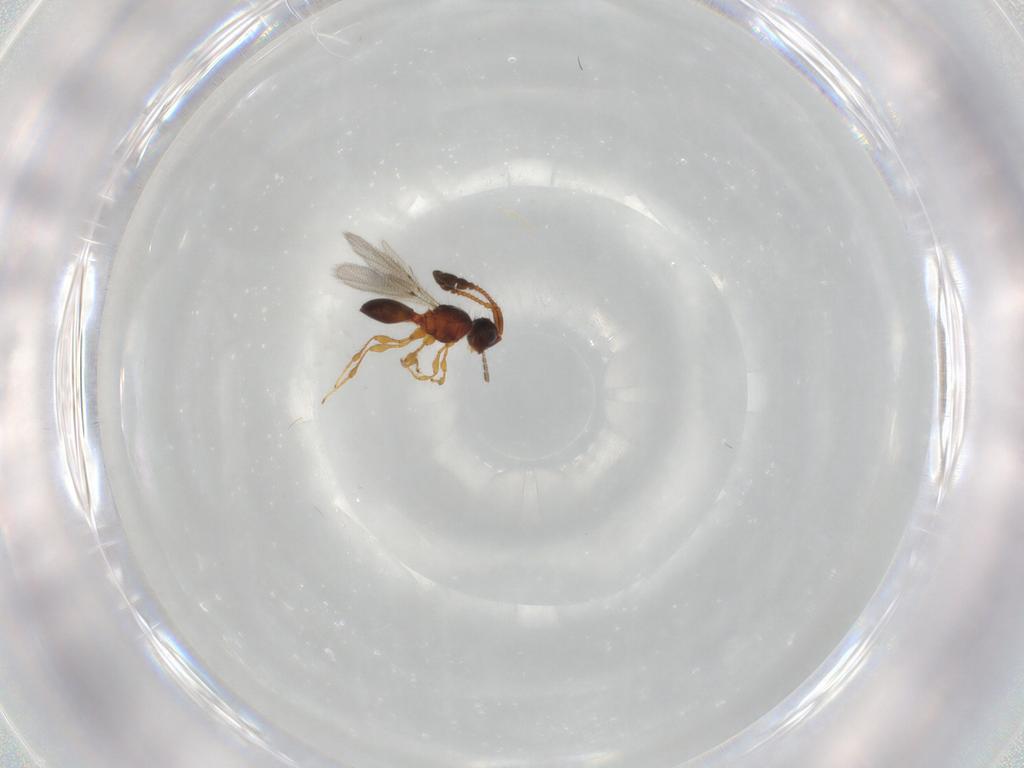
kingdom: Animalia
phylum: Arthropoda
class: Insecta
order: Hymenoptera
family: Diapriidae
